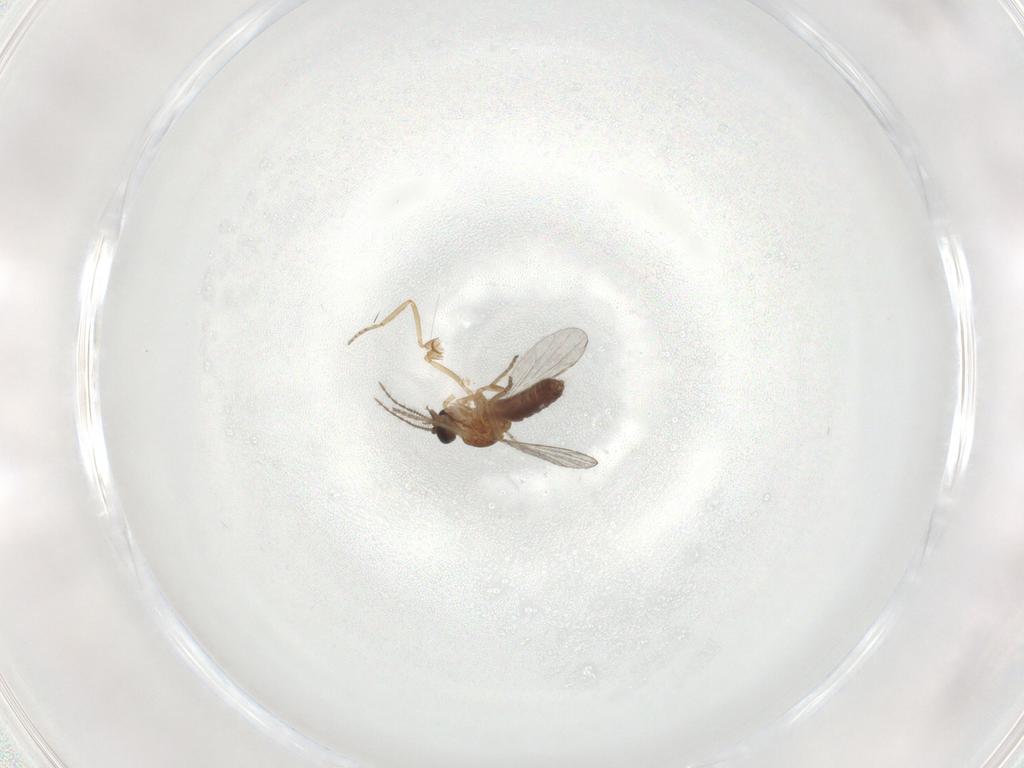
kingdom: Animalia
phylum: Arthropoda
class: Insecta
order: Diptera
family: Ceratopogonidae
